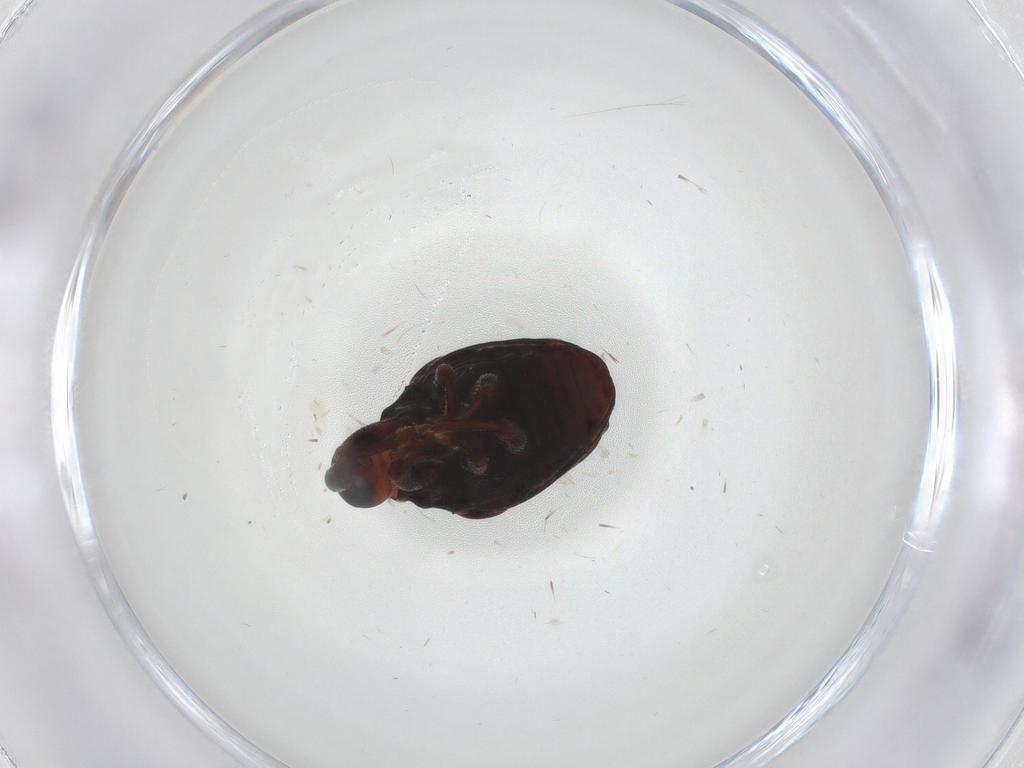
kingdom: Animalia
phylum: Arthropoda
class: Insecta
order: Coleoptera
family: Curculionidae
